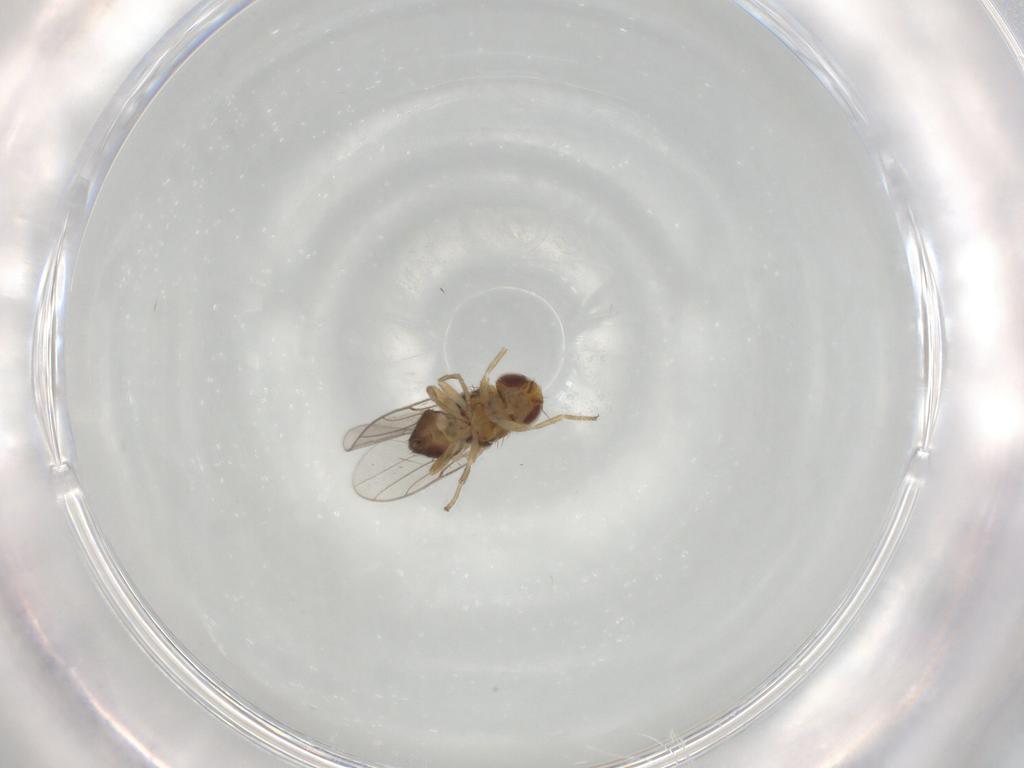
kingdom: Animalia
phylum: Arthropoda
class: Insecta
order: Diptera
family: Chloropidae
